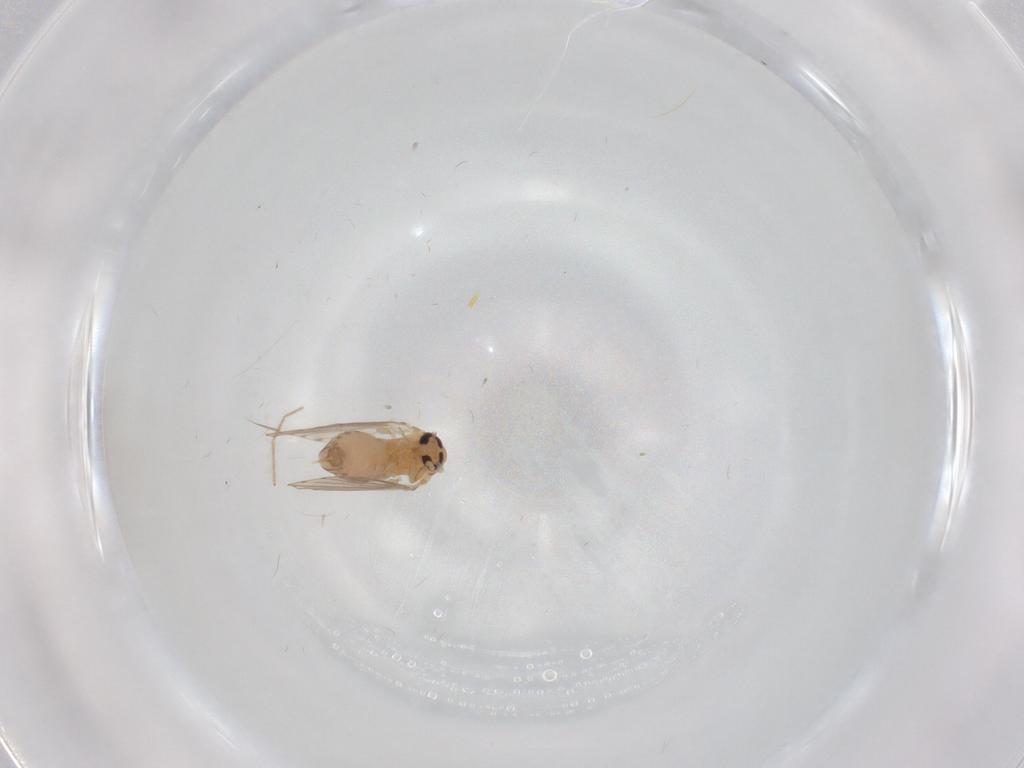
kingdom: Animalia
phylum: Arthropoda
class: Insecta
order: Diptera
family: Psychodidae
